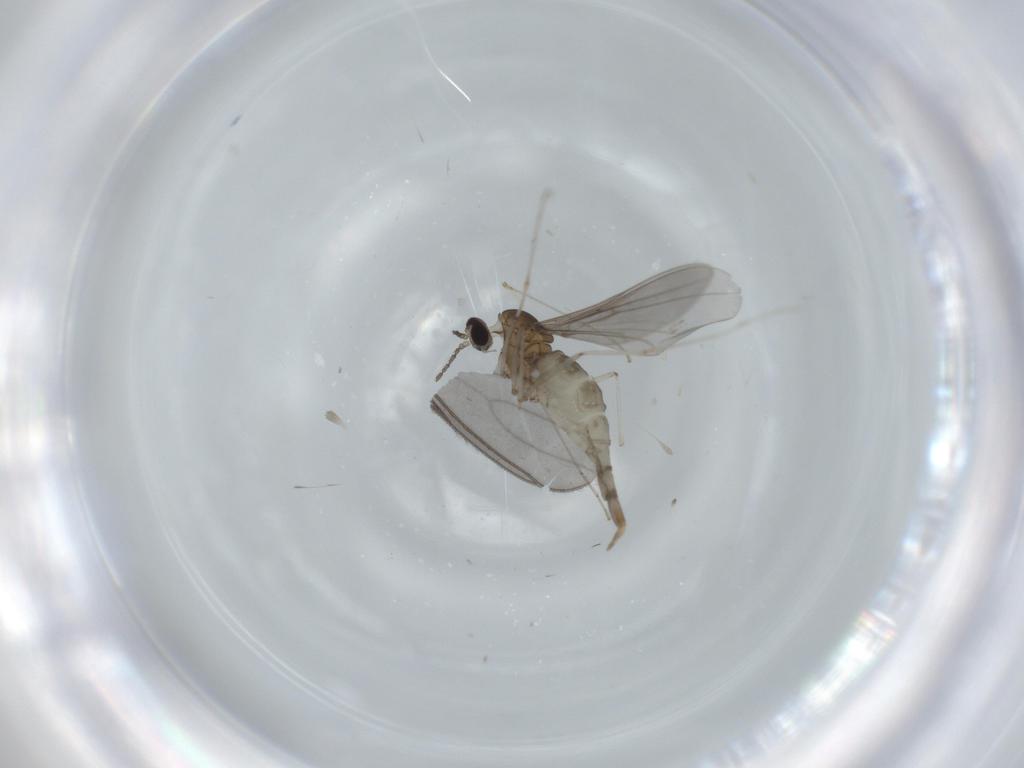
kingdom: Animalia
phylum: Arthropoda
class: Insecta
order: Diptera
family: Cecidomyiidae
